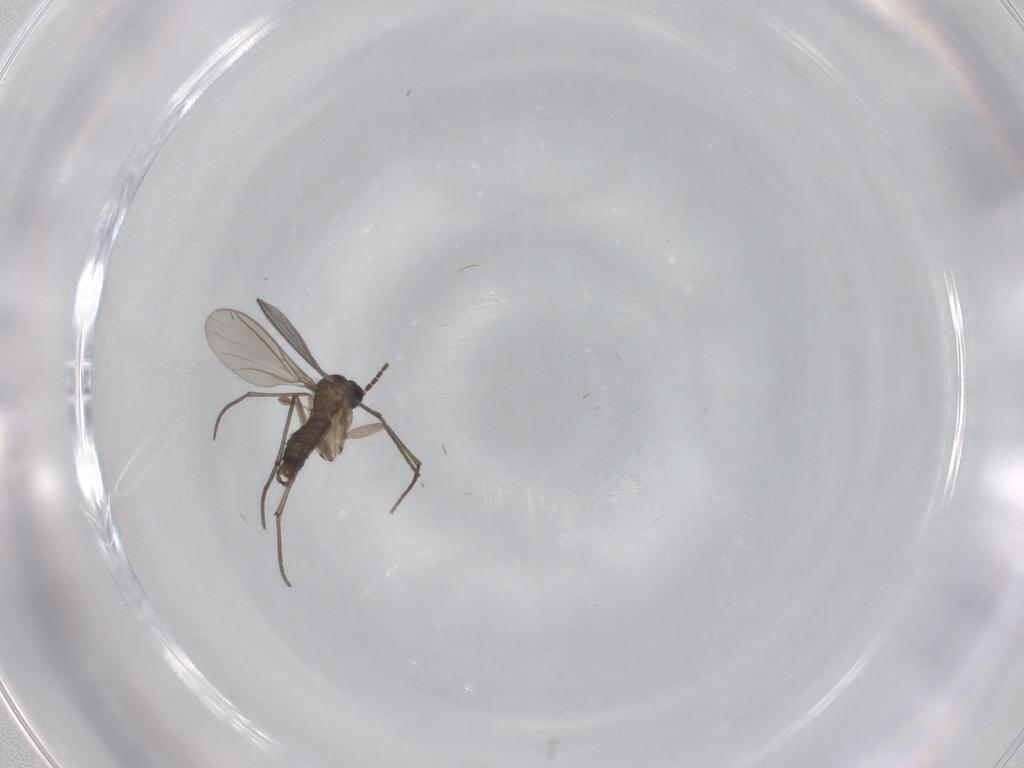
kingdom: Animalia
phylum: Arthropoda
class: Insecta
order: Diptera
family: Sciaridae
